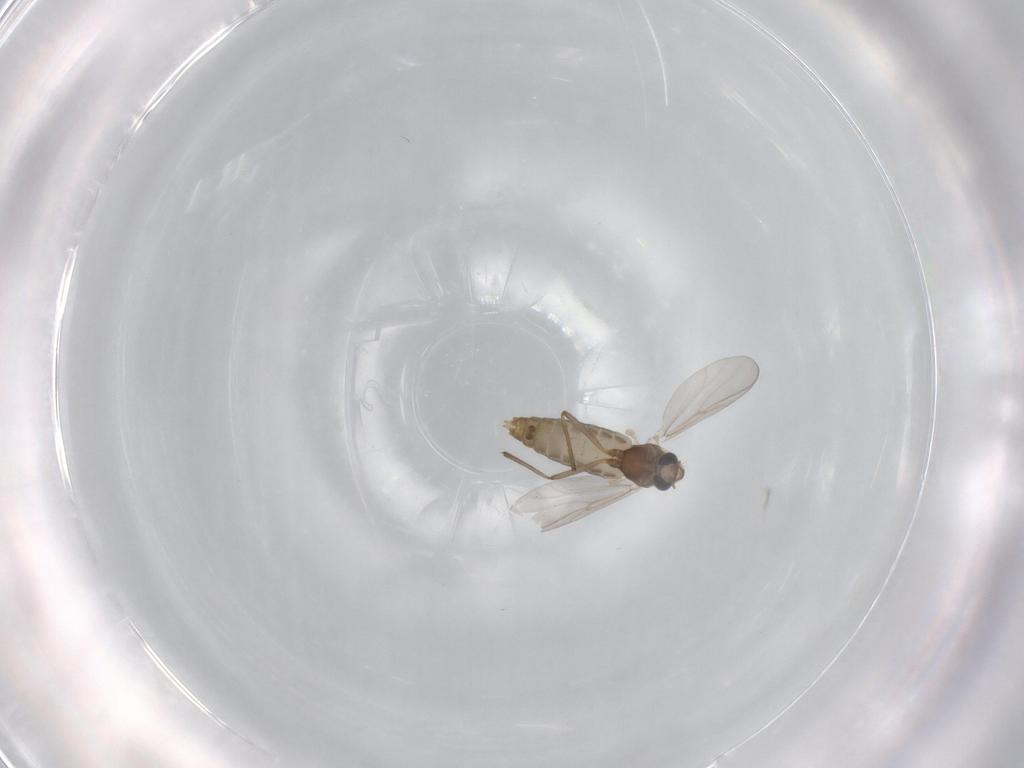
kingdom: Animalia
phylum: Arthropoda
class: Insecta
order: Diptera
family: Chironomidae
